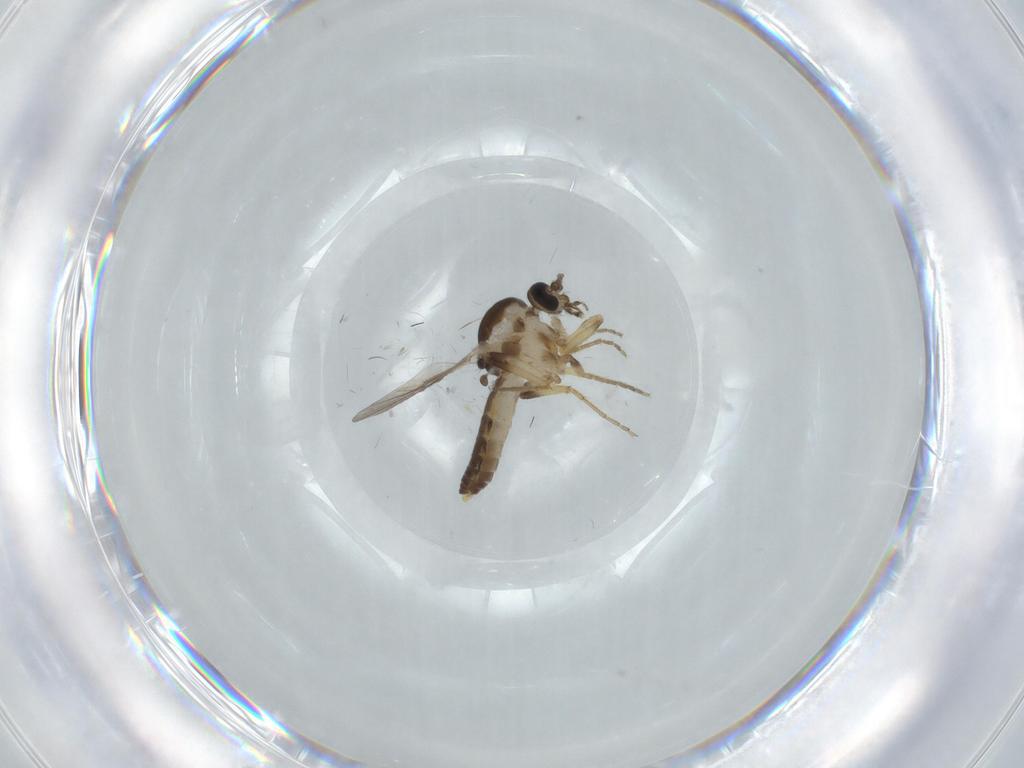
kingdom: Animalia
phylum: Arthropoda
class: Insecta
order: Diptera
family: Ceratopogonidae
